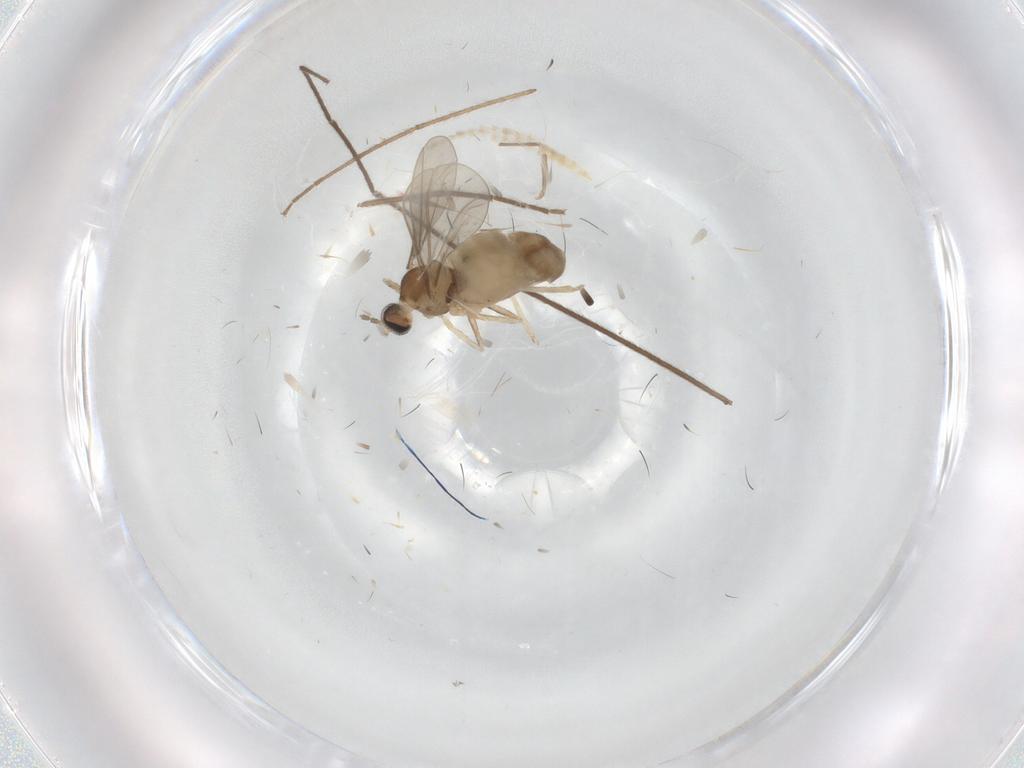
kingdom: Animalia
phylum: Arthropoda
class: Insecta
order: Diptera
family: Cecidomyiidae
